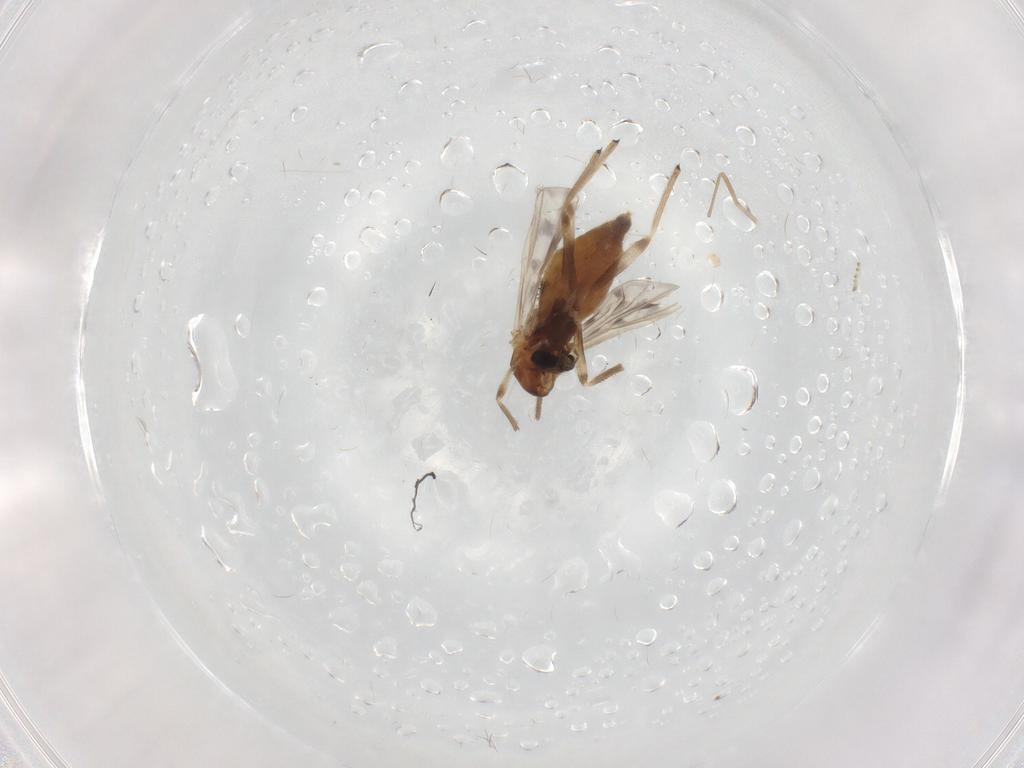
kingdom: Animalia
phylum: Arthropoda
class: Insecta
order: Diptera
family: Chironomidae
